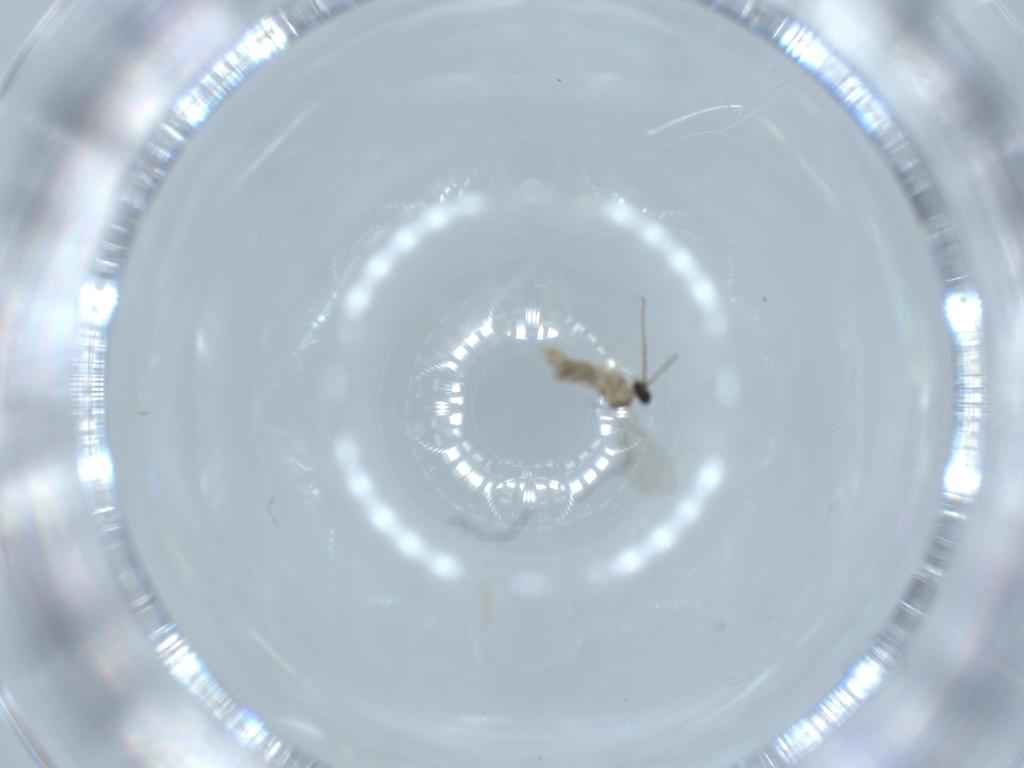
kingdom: Animalia
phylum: Arthropoda
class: Insecta
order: Diptera
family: Cecidomyiidae
